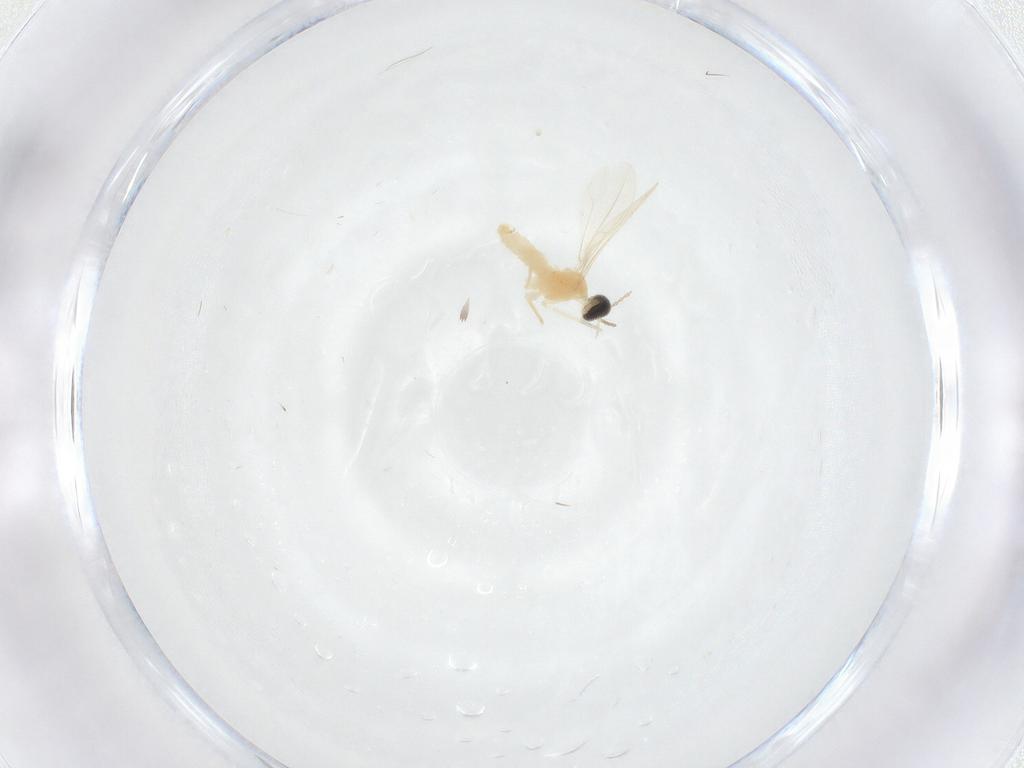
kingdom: Animalia
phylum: Arthropoda
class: Insecta
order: Diptera
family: Cecidomyiidae
